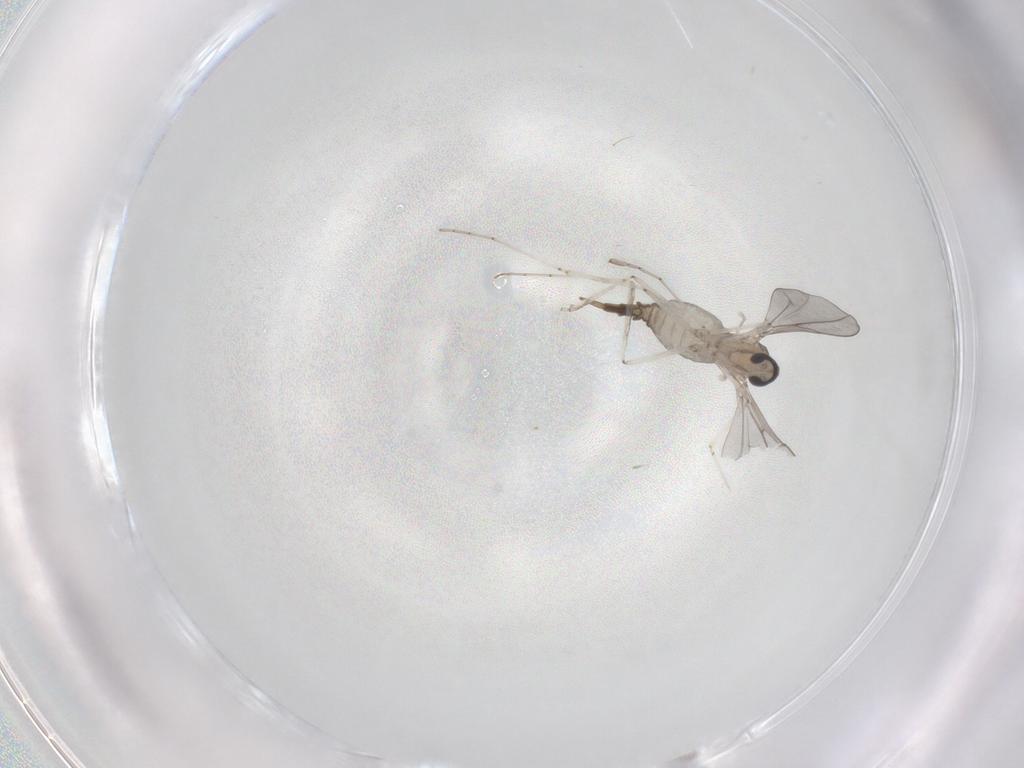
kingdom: Animalia
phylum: Arthropoda
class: Insecta
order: Diptera
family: Cecidomyiidae
